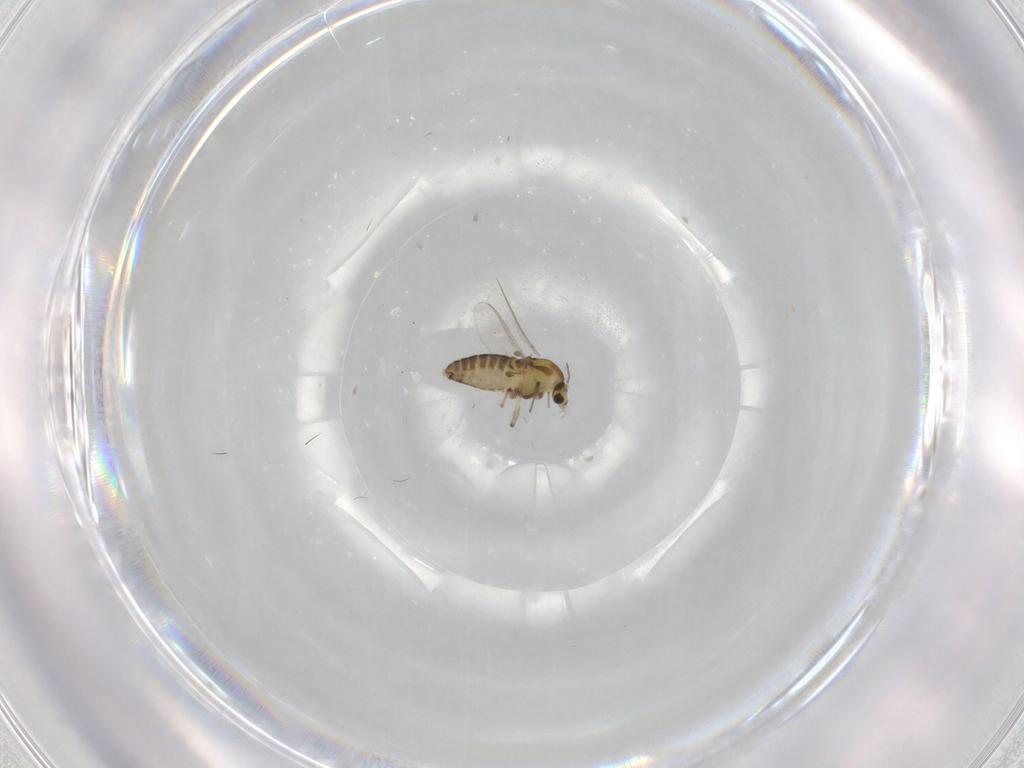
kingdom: Animalia
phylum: Arthropoda
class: Insecta
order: Diptera
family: Chironomidae
